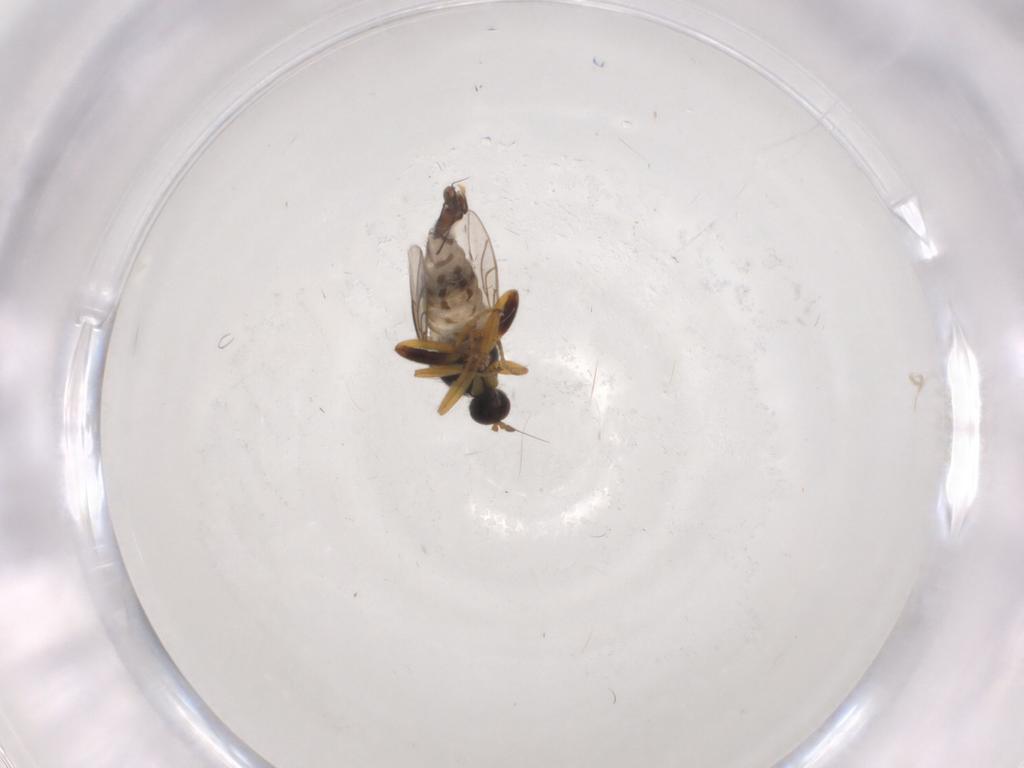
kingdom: Animalia
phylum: Arthropoda
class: Insecta
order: Diptera
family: Hybotidae
